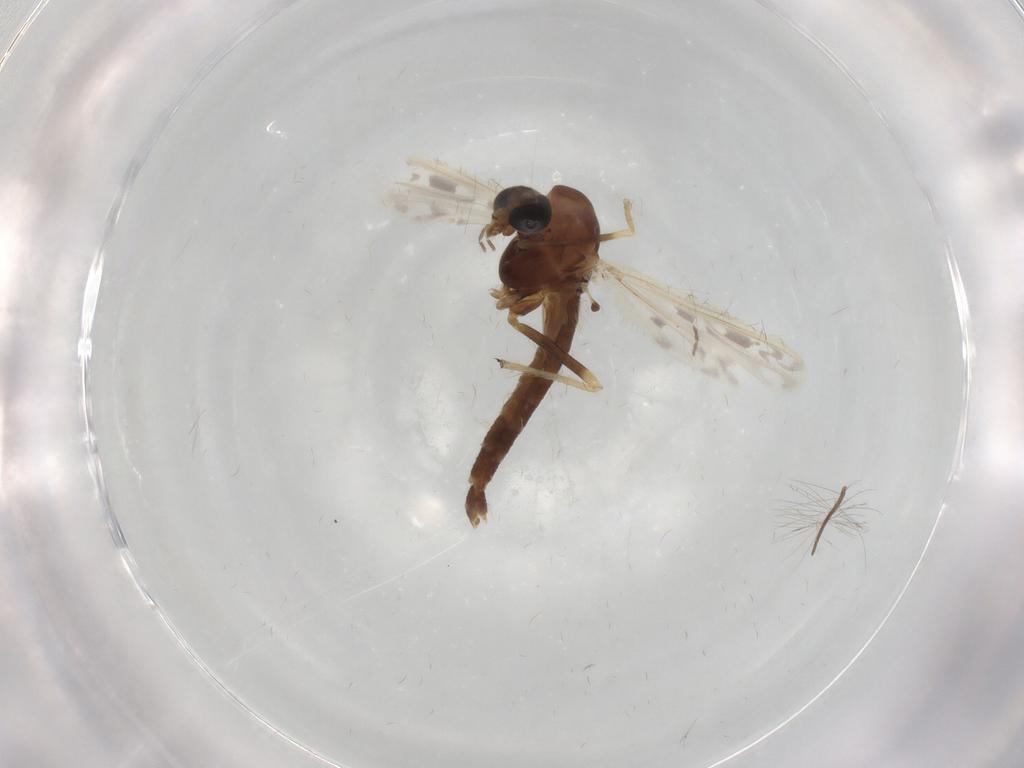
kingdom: Animalia
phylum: Arthropoda
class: Insecta
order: Diptera
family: Chironomidae
